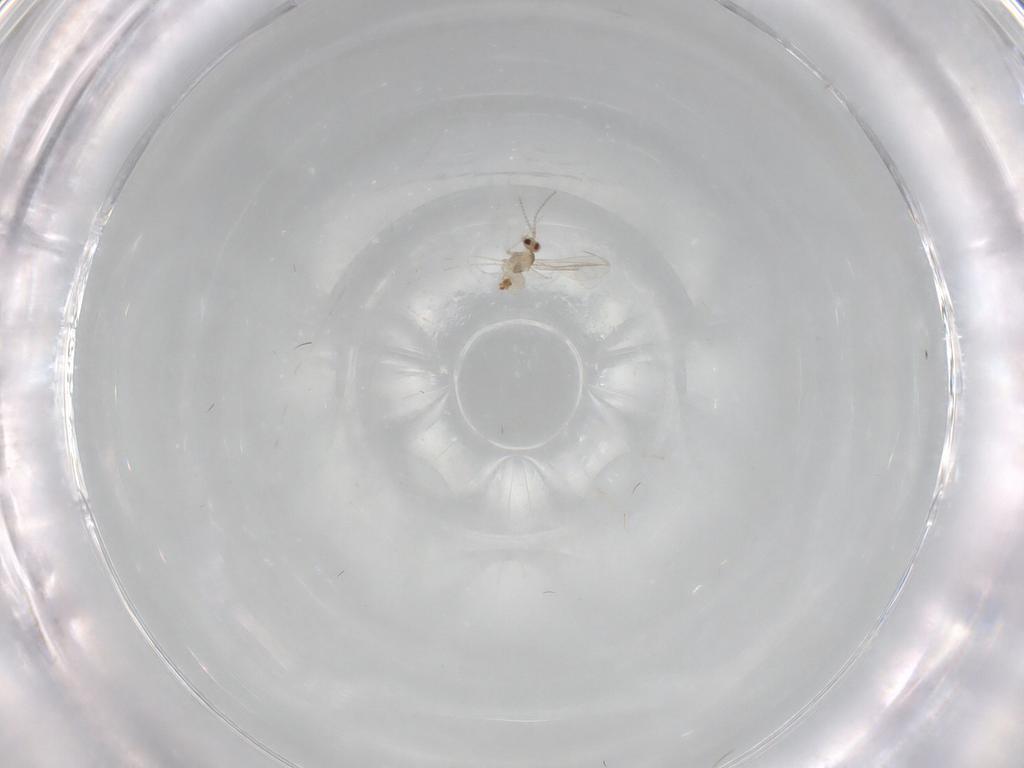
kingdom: Animalia
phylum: Arthropoda
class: Insecta
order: Diptera
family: Cecidomyiidae
